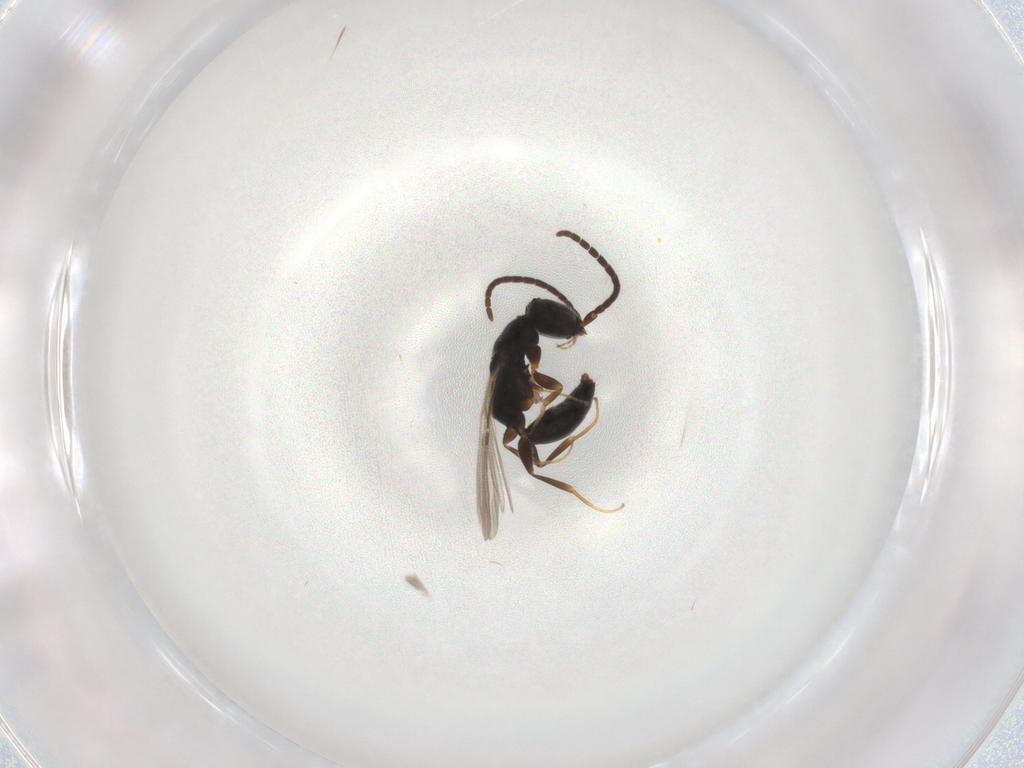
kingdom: Animalia
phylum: Arthropoda
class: Insecta
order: Hymenoptera
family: Bethylidae
